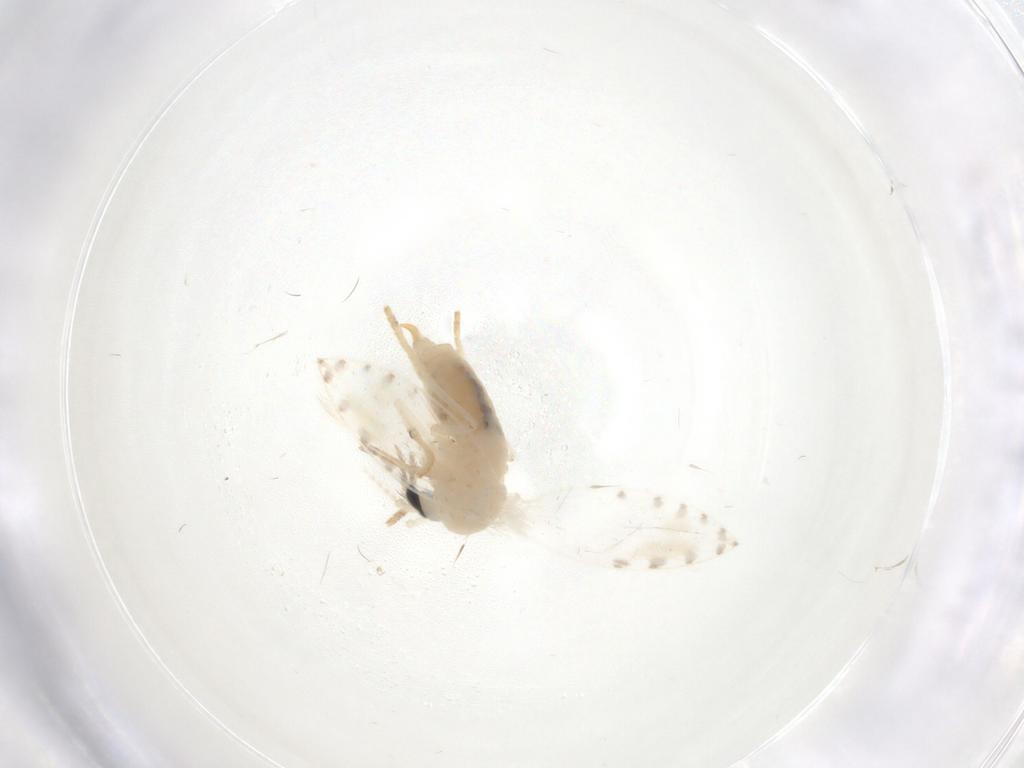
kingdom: Animalia
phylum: Arthropoda
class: Insecta
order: Diptera
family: Psychodidae
